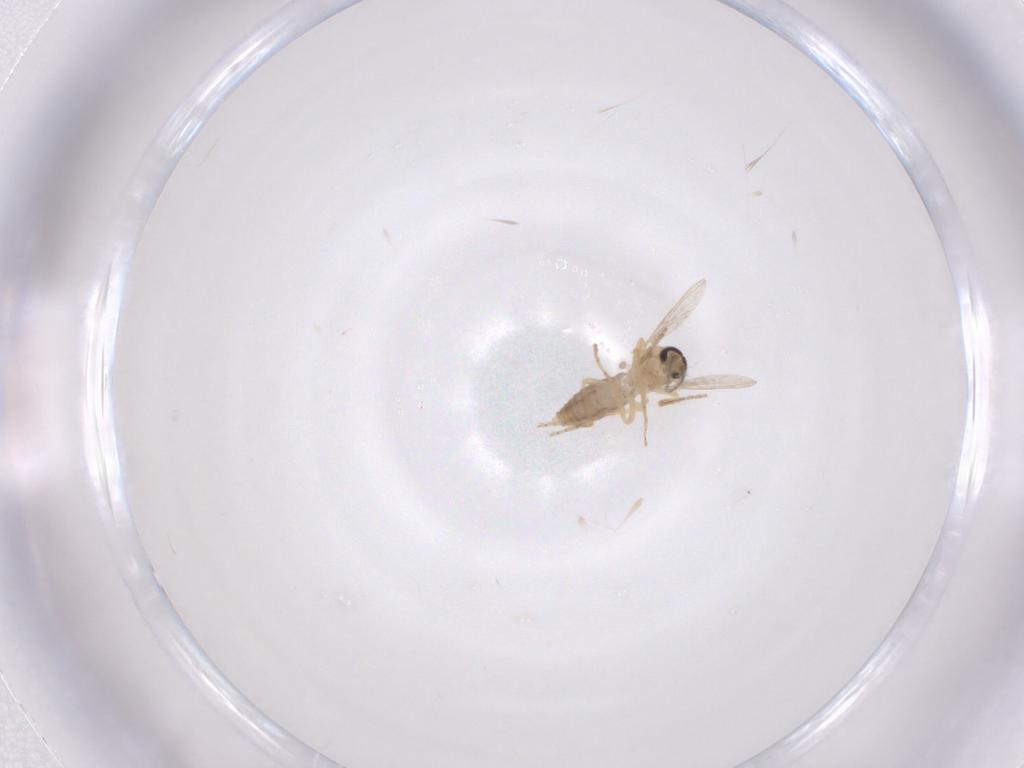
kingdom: Animalia
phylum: Arthropoda
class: Insecta
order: Diptera
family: Ceratopogonidae
